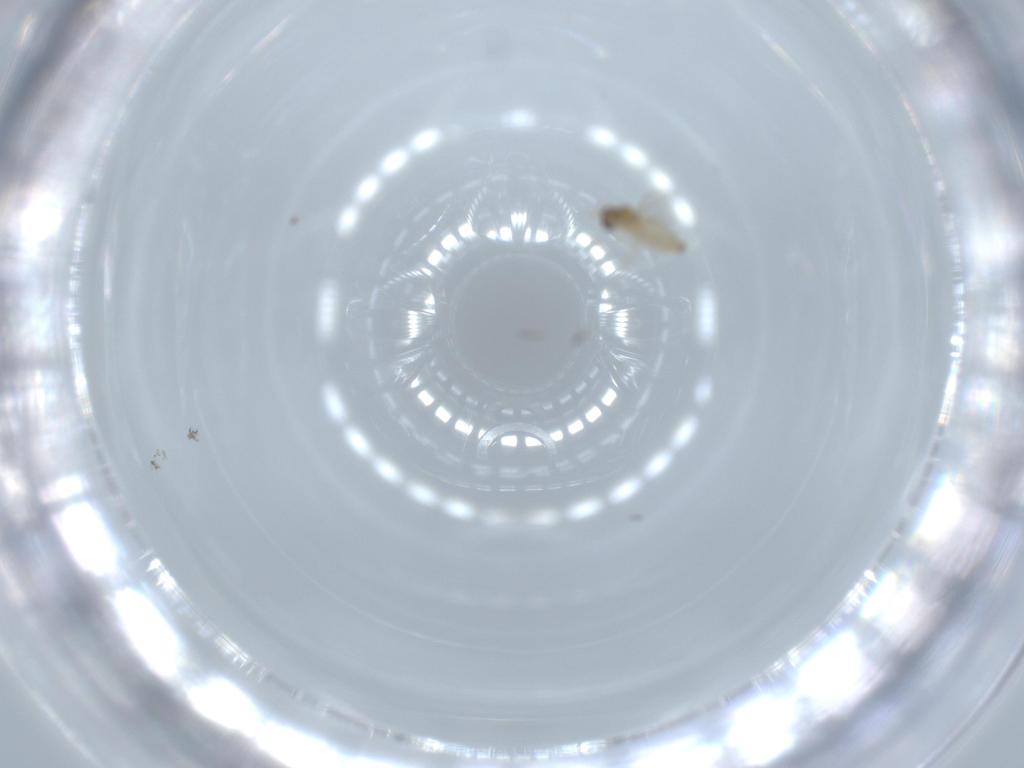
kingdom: Animalia
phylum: Arthropoda
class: Insecta
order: Diptera
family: Cecidomyiidae
